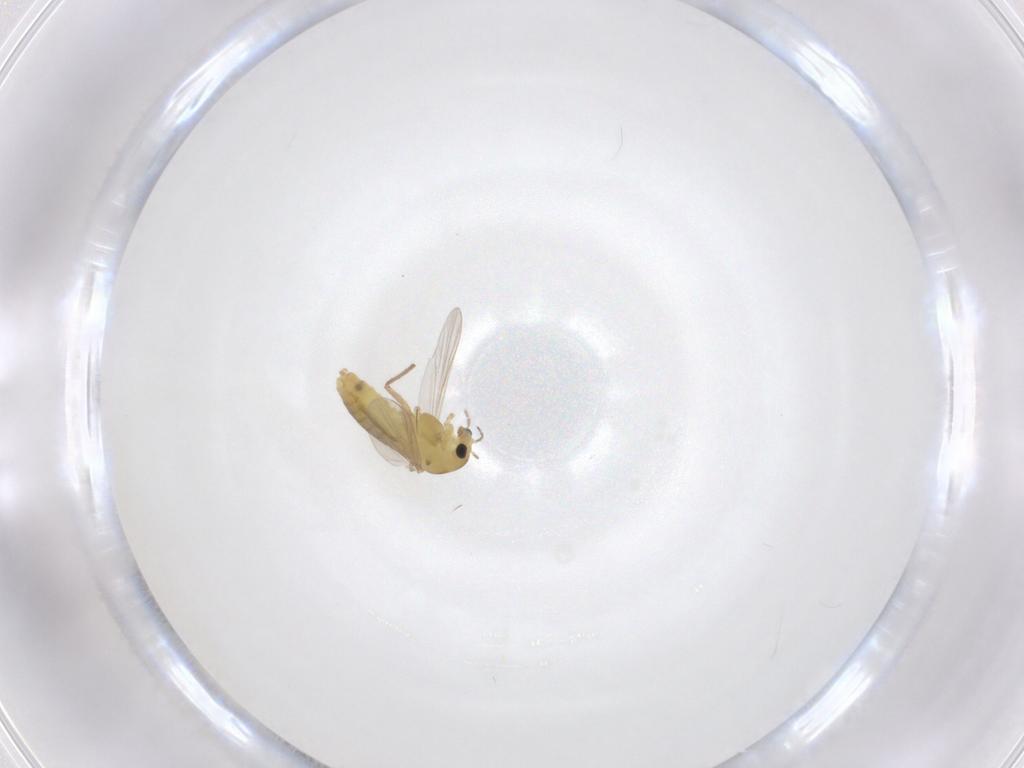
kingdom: Animalia
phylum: Arthropoda
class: Insecta
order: Diptera
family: Chironomidae
